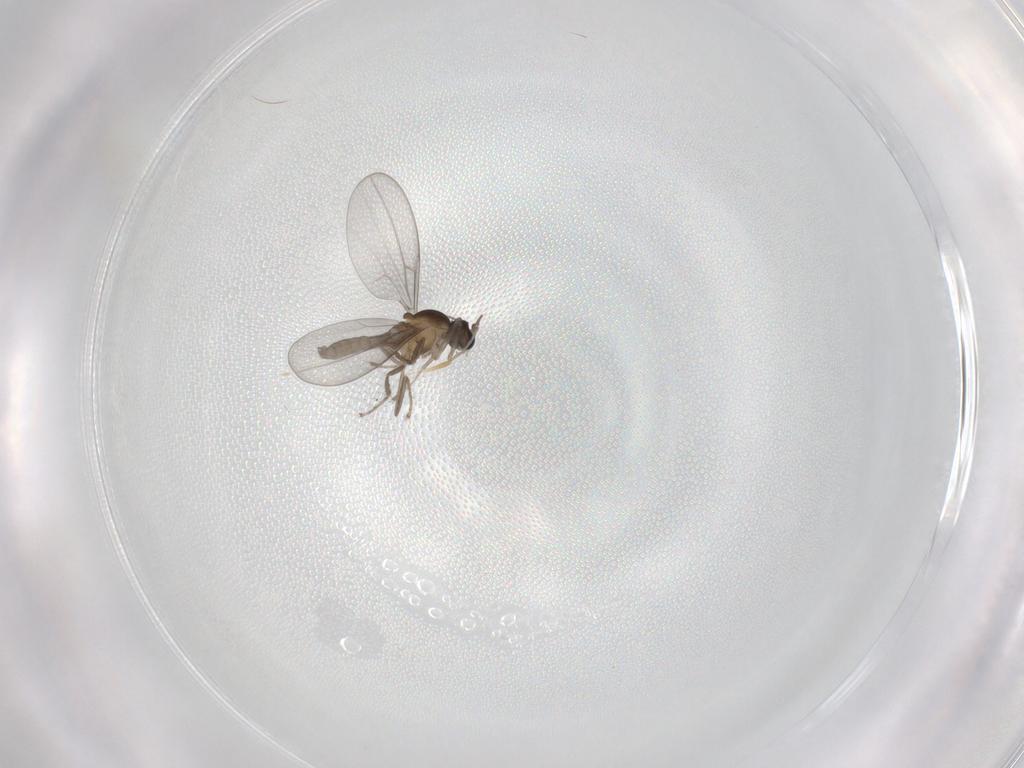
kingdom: Animalia
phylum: Arthropoda
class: Insecta
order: Diptera
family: Cecidomyiidae
